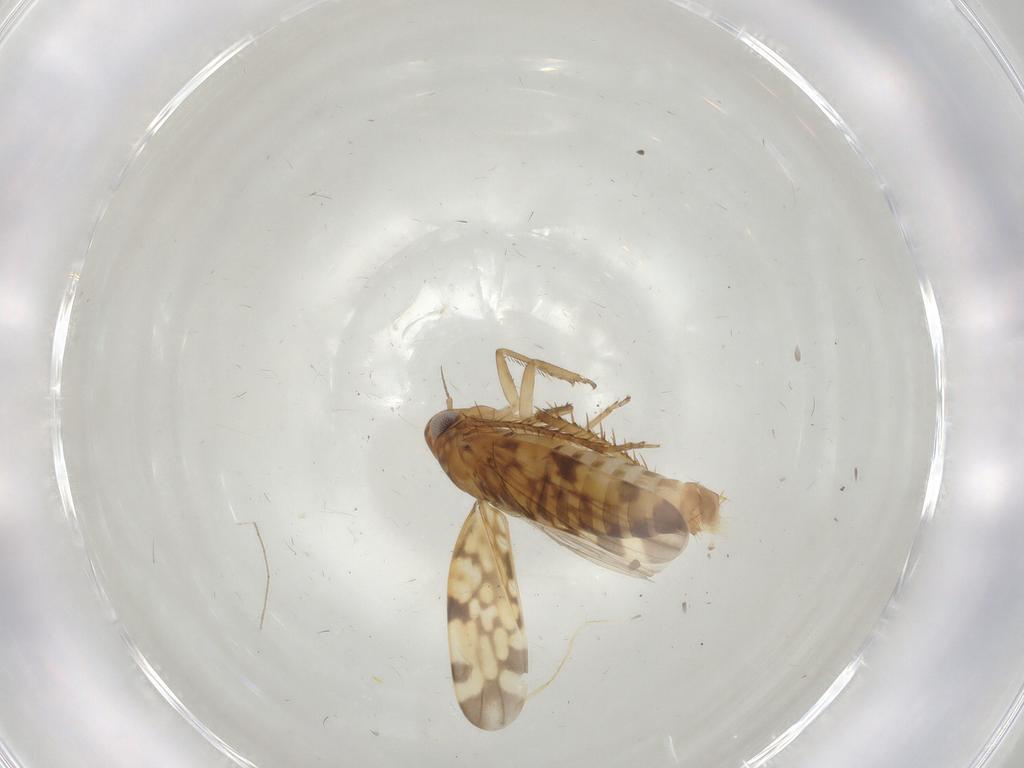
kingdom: Animalia
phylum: Arthropoda
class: Insecta
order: Hemiptera
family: Cicadellidae
